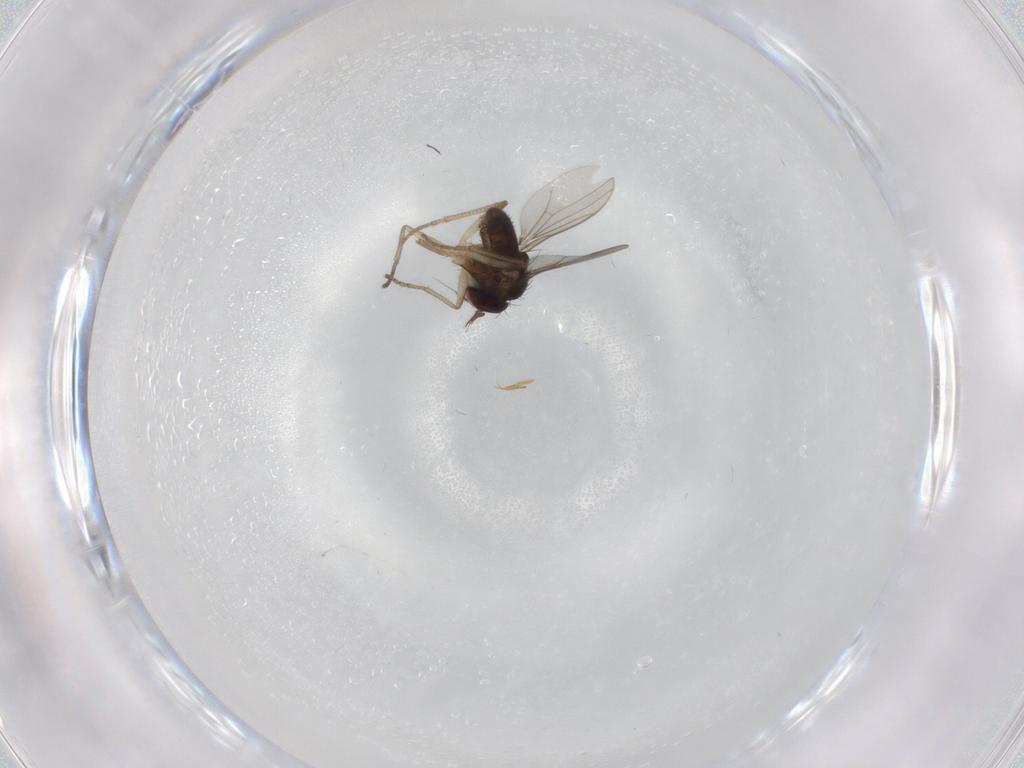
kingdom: Animalia
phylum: Arthropoda
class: Insecta
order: Diptera
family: Dolichopodidae
